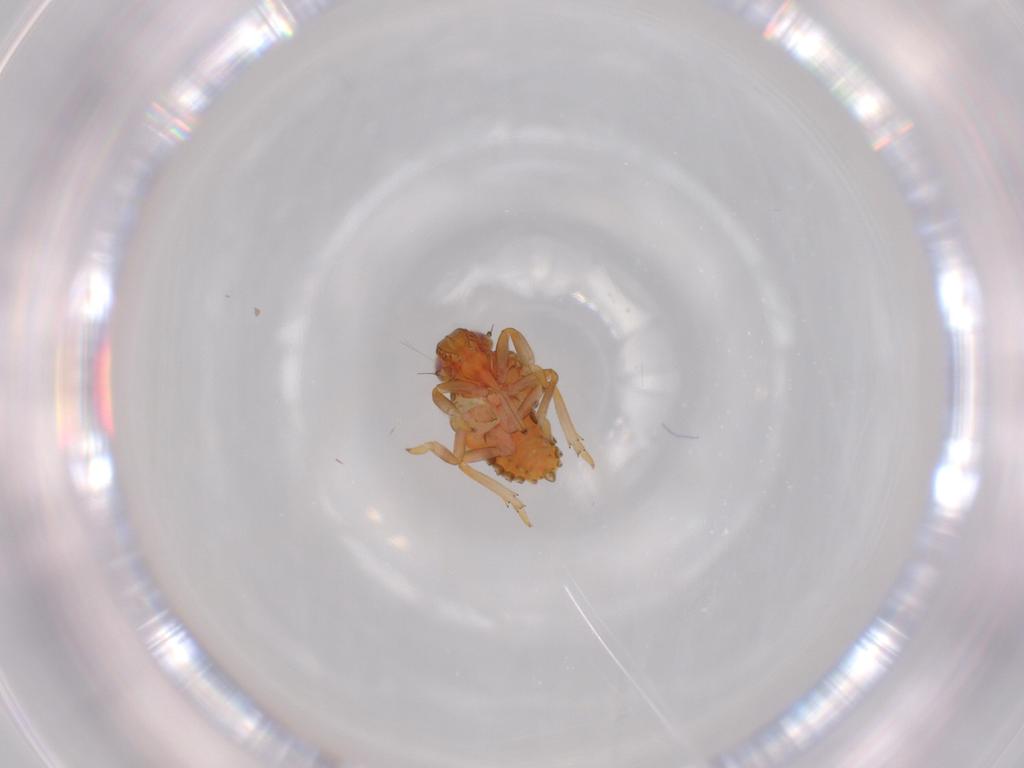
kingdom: Animalia
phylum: Arthropoda
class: Insecta
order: Hemiptera
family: Issidae
